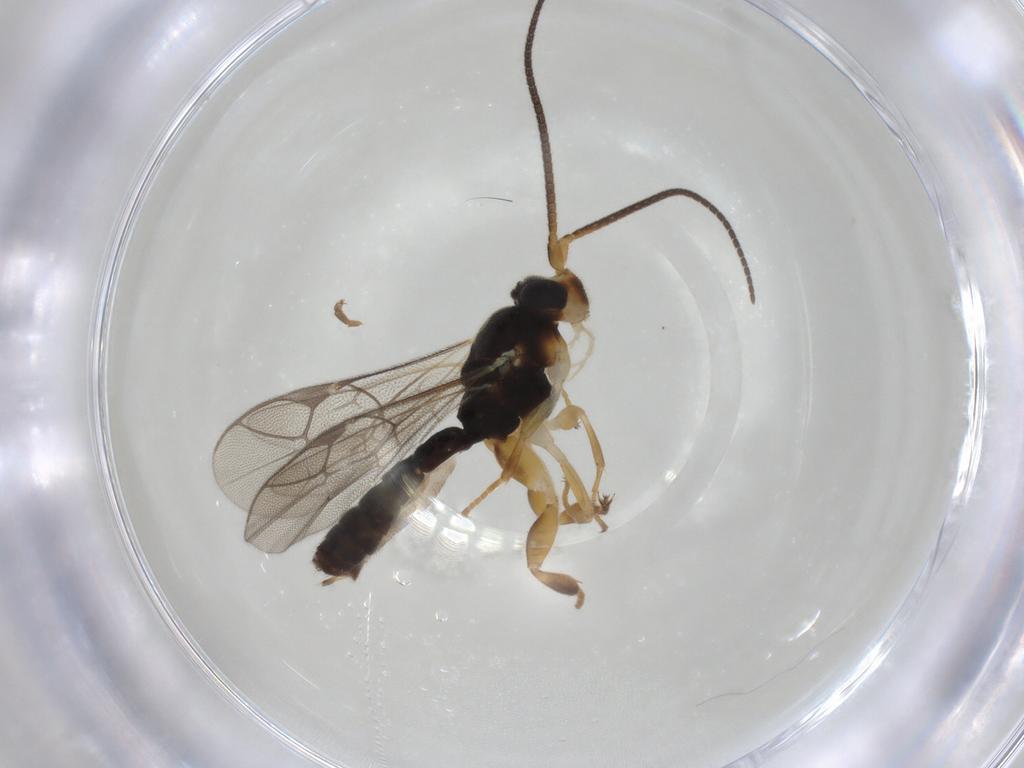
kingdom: Animalia
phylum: Arthropoda
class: Insecta
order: Hymenoptera
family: Ichneumonidae
